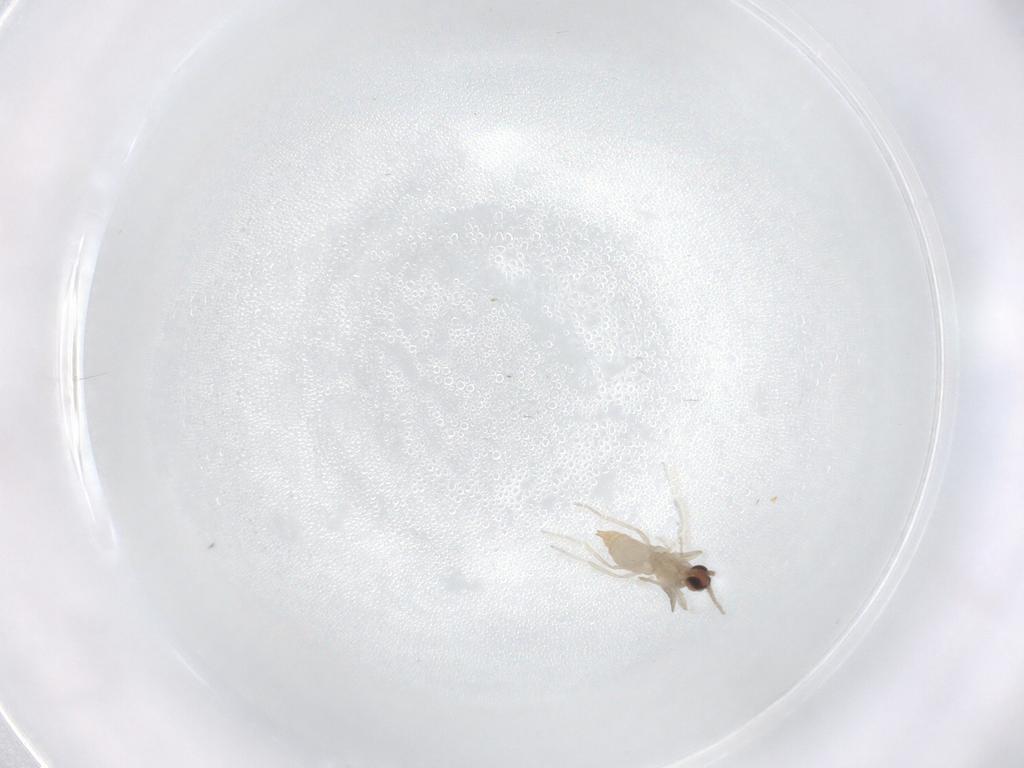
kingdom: Animalia
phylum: Arthropoda
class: Insecta
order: Diptera
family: Cecidomyiidae
